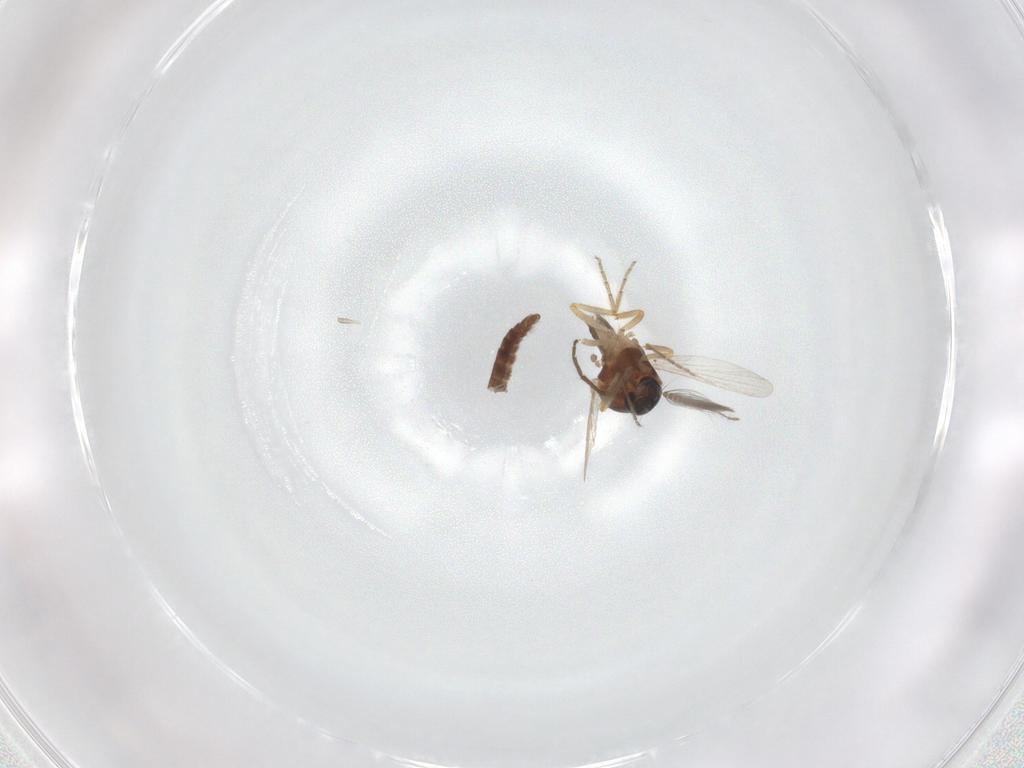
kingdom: Animalia
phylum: Arthropoda
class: Insecta
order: Diptera
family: Ceratopogonidae
